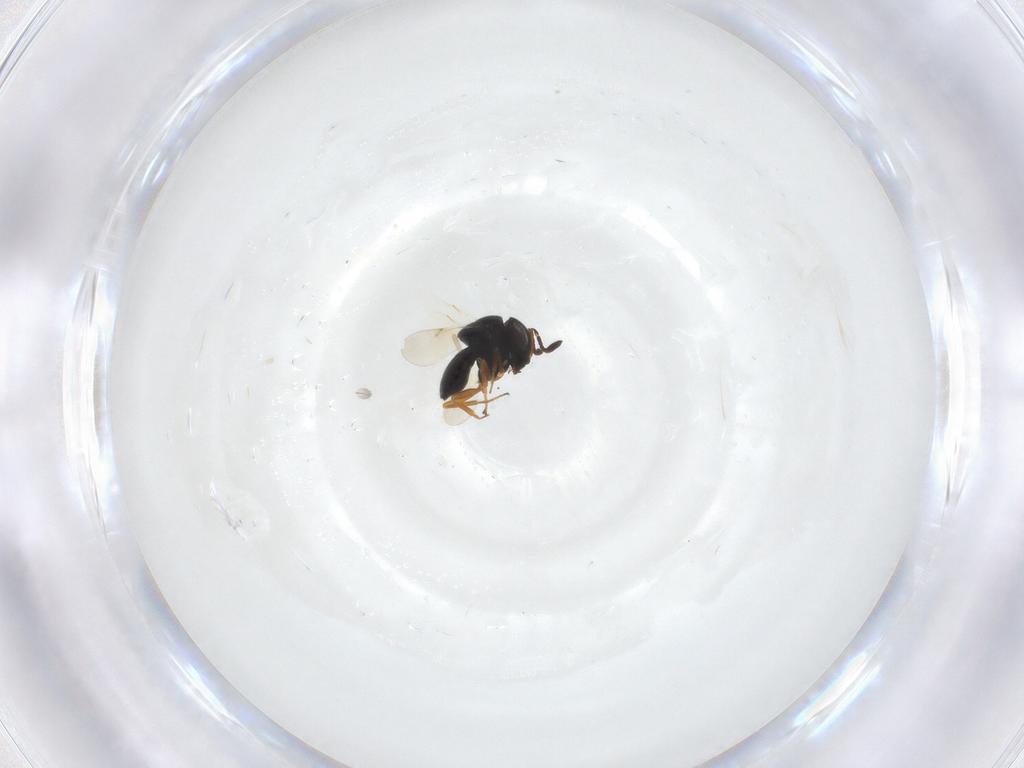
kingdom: Animalia
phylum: Arthropoda
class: Insecta
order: Hymenoptera
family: Scelionidae
